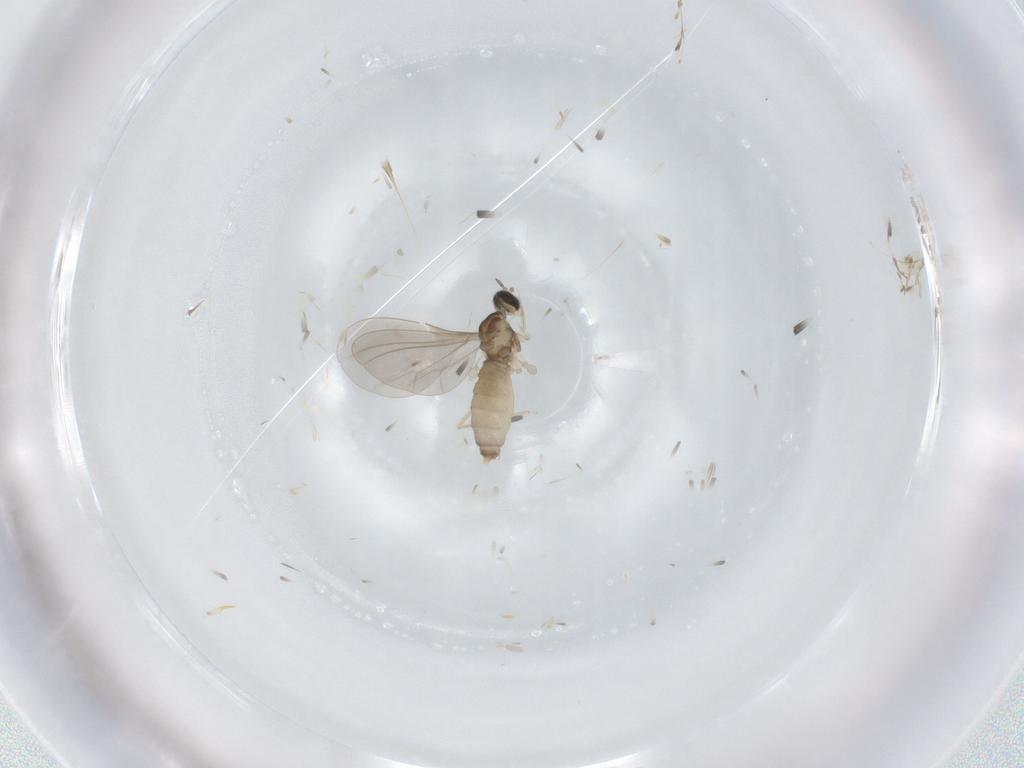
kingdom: Animalia
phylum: Arthropoda
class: Insecta
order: Diptera
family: Cecidomyiidae
